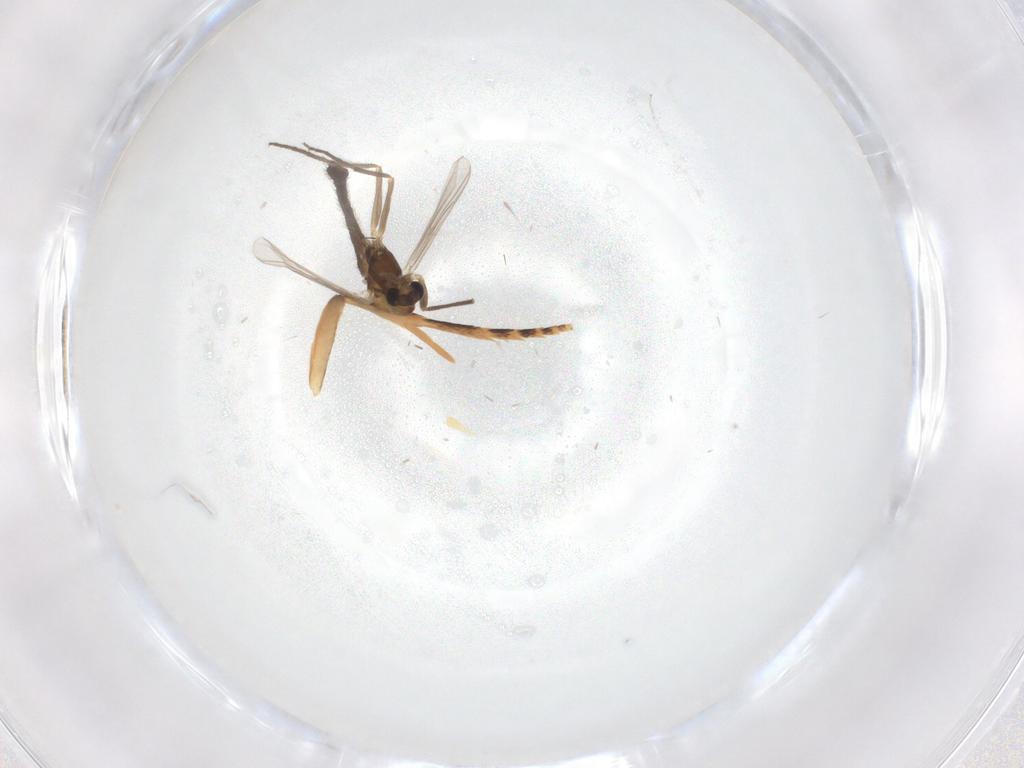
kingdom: Animalia
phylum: Arthropoda
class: Insecta
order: Diptera
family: Chironomidae
